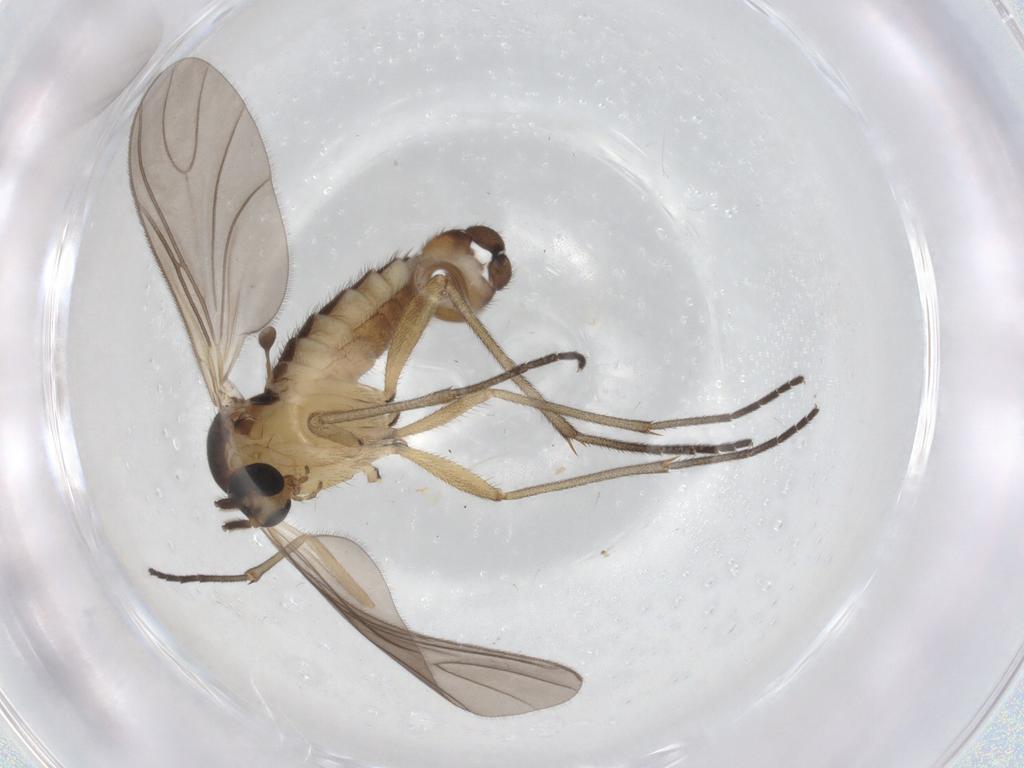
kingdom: Animalia
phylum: Arthropoda
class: Insecta
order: Diptera
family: Sciaridae
